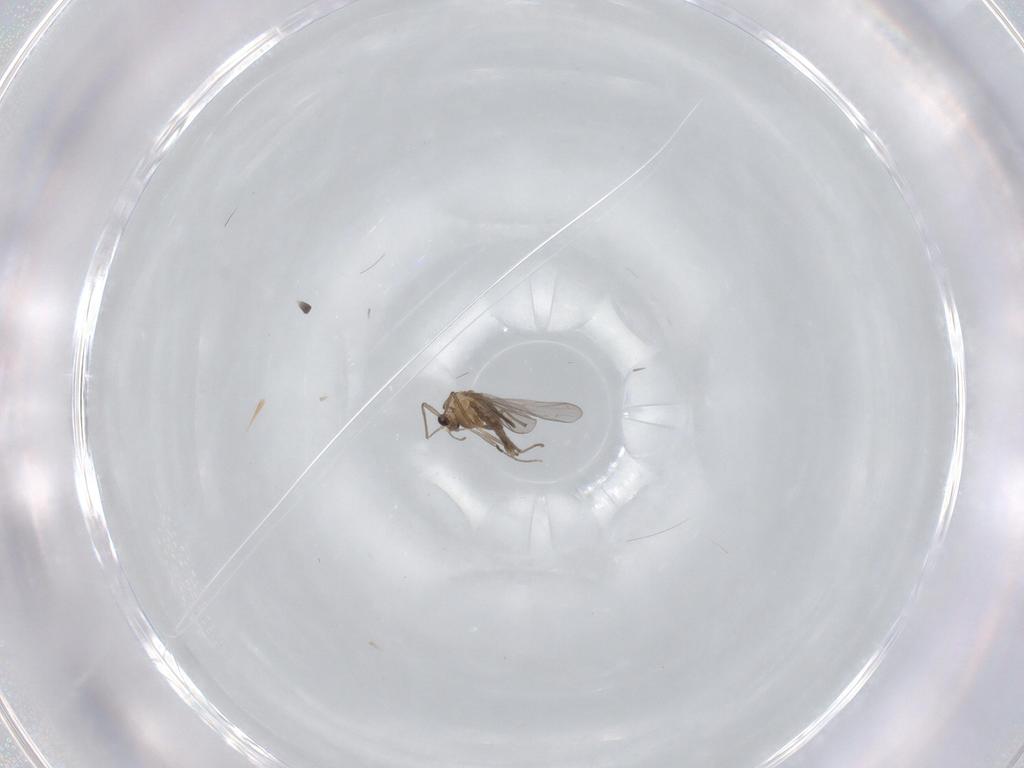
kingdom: Animalia
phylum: Arthropoda
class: Insecta
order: Diptera
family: Chironomidae
